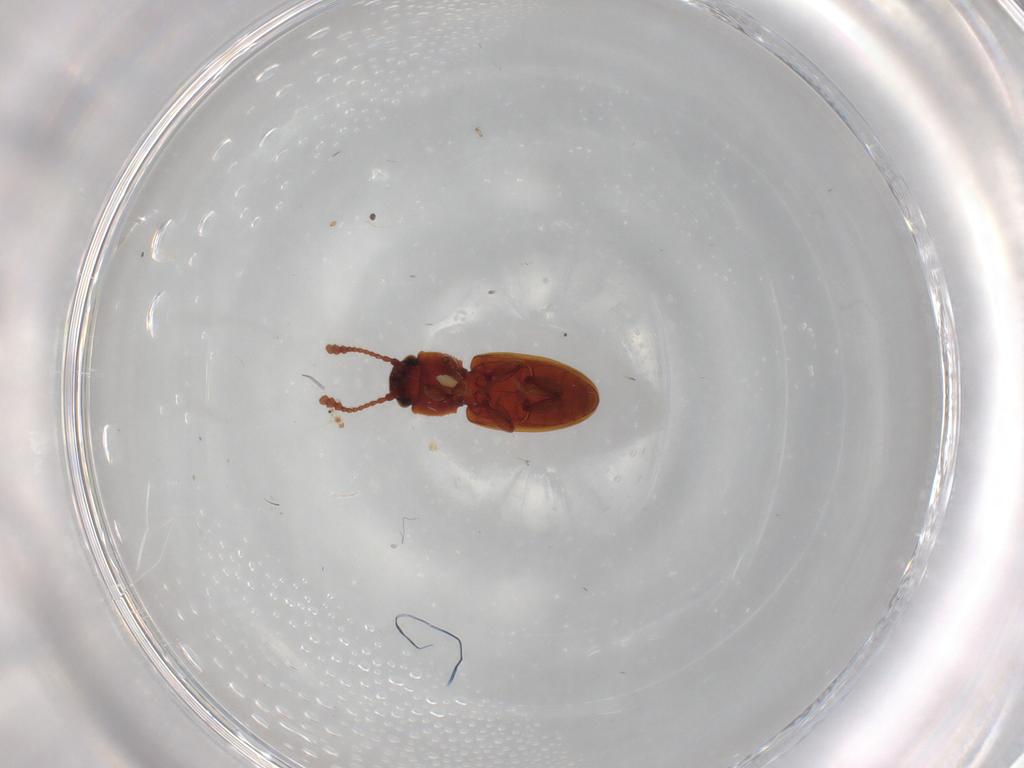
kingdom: Animalia
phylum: Arthropoda
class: Insecta
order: Coleoptera
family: Silvanidae
